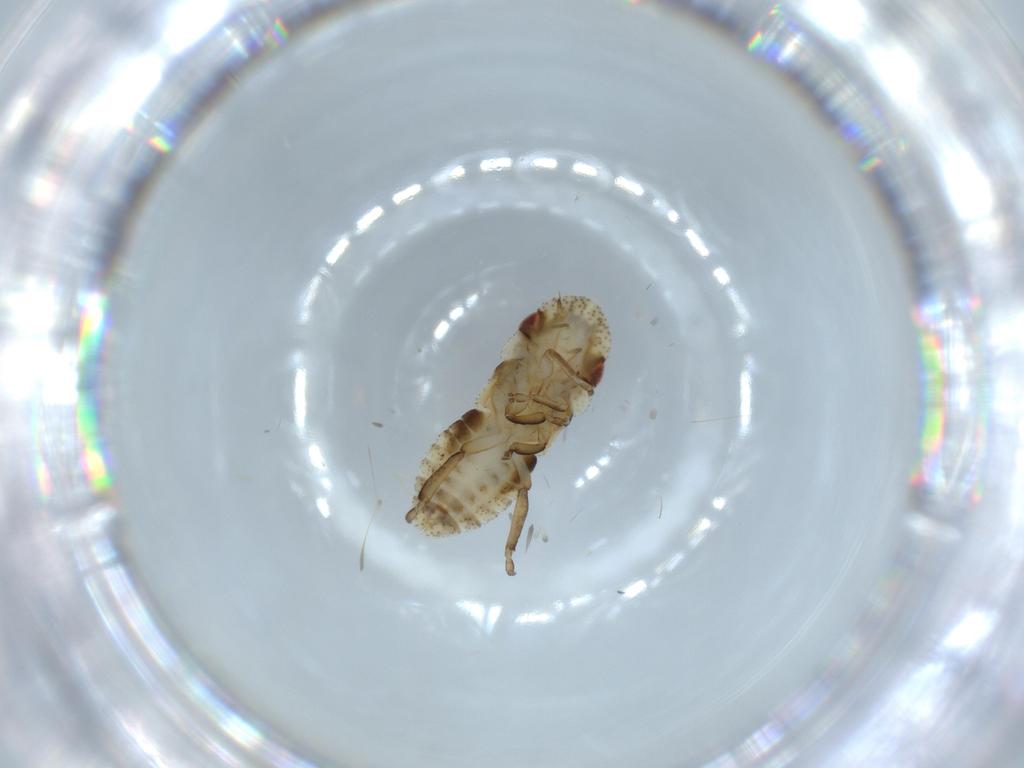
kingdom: Animalia
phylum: Arthropoda
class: Insecta
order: Hemiptera
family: Cicadellidae
